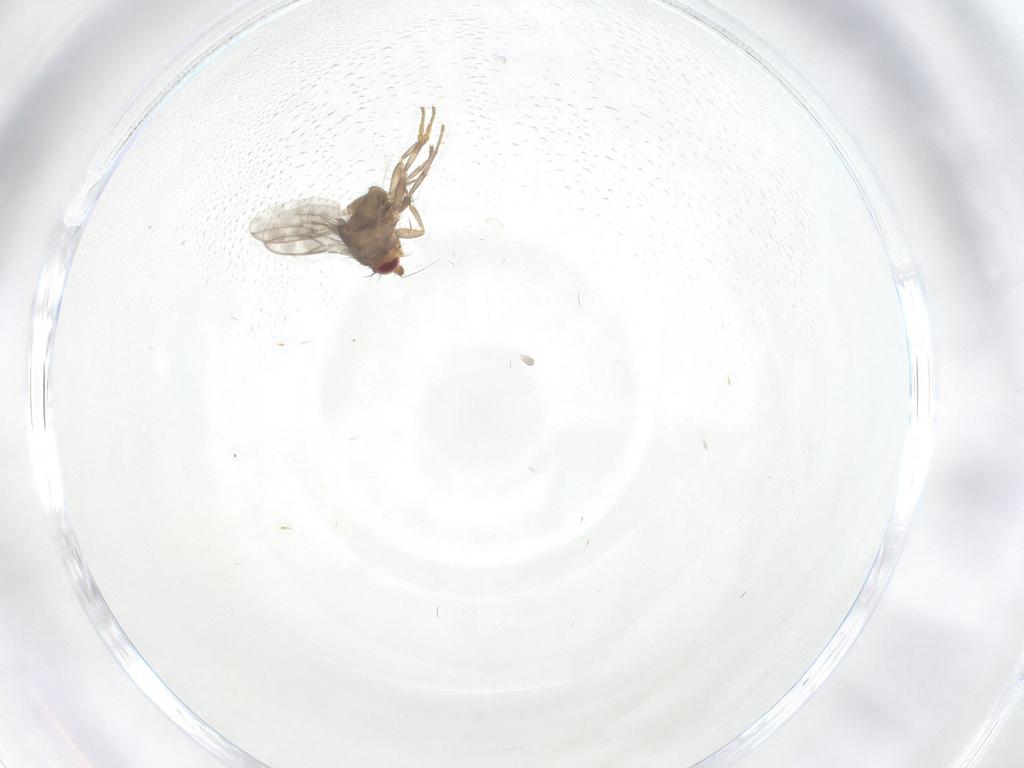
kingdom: Animalia
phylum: Arthropoda
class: Insecta
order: Diptera
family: Sphaeroceridae
